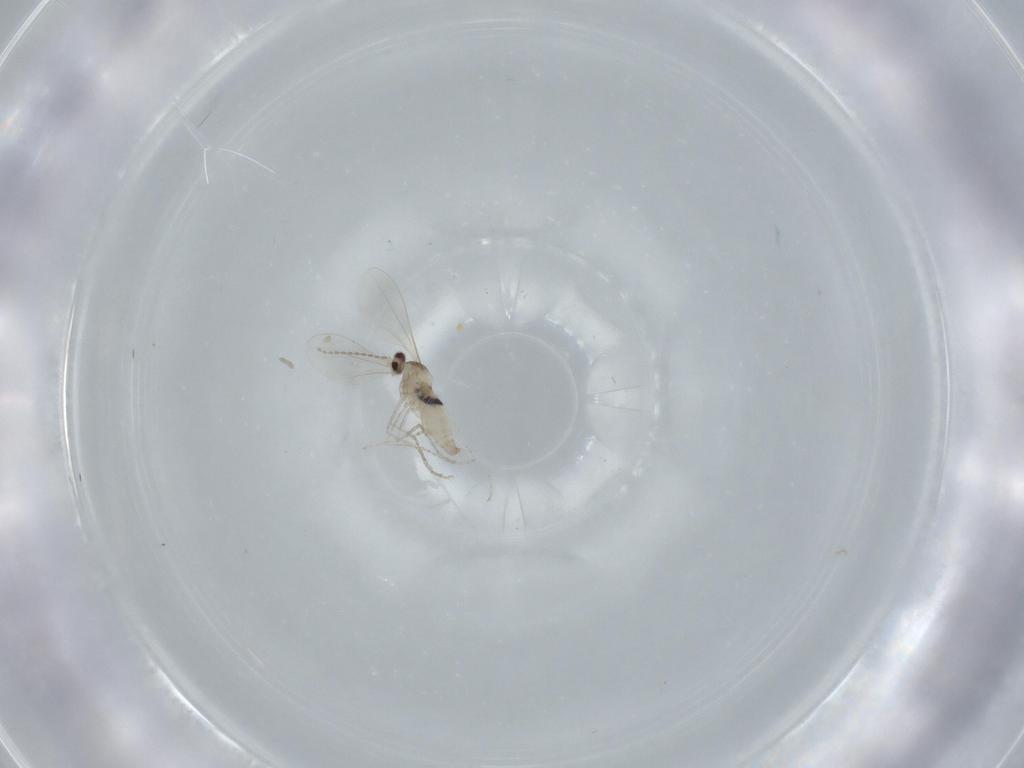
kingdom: Animalia
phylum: Arthropoda
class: Insecta
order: Diptera
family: Cecidomyiidae
